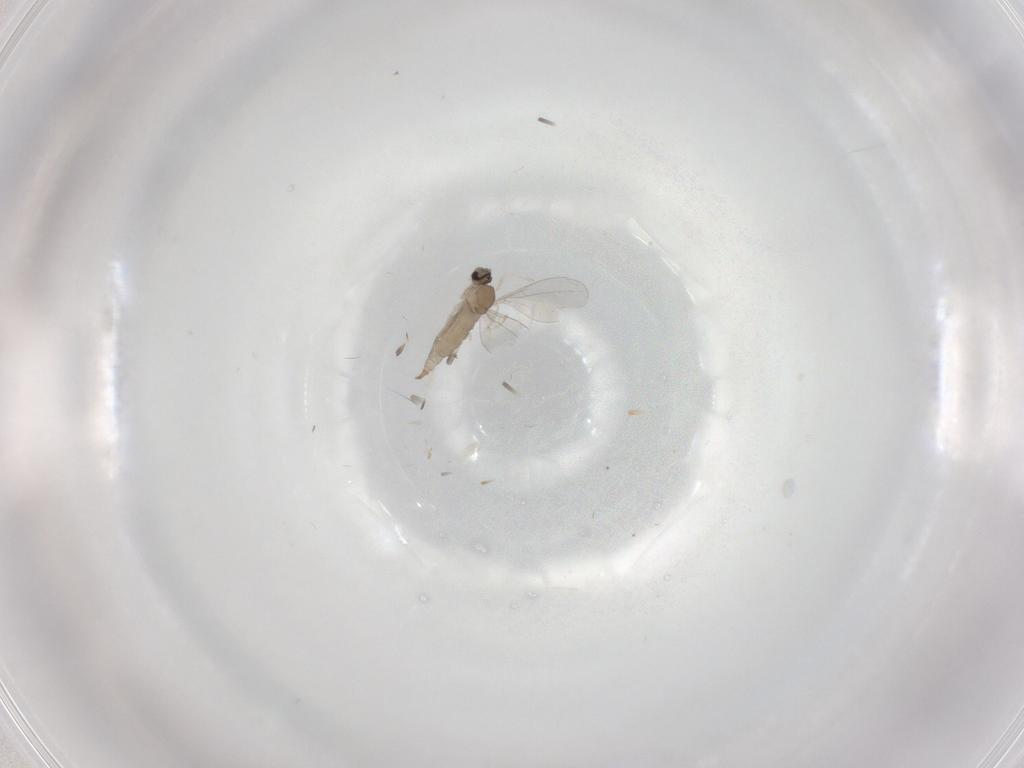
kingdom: Animalia
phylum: Arthropoda
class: Insecta
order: Diptera
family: Cecidomyiidae
